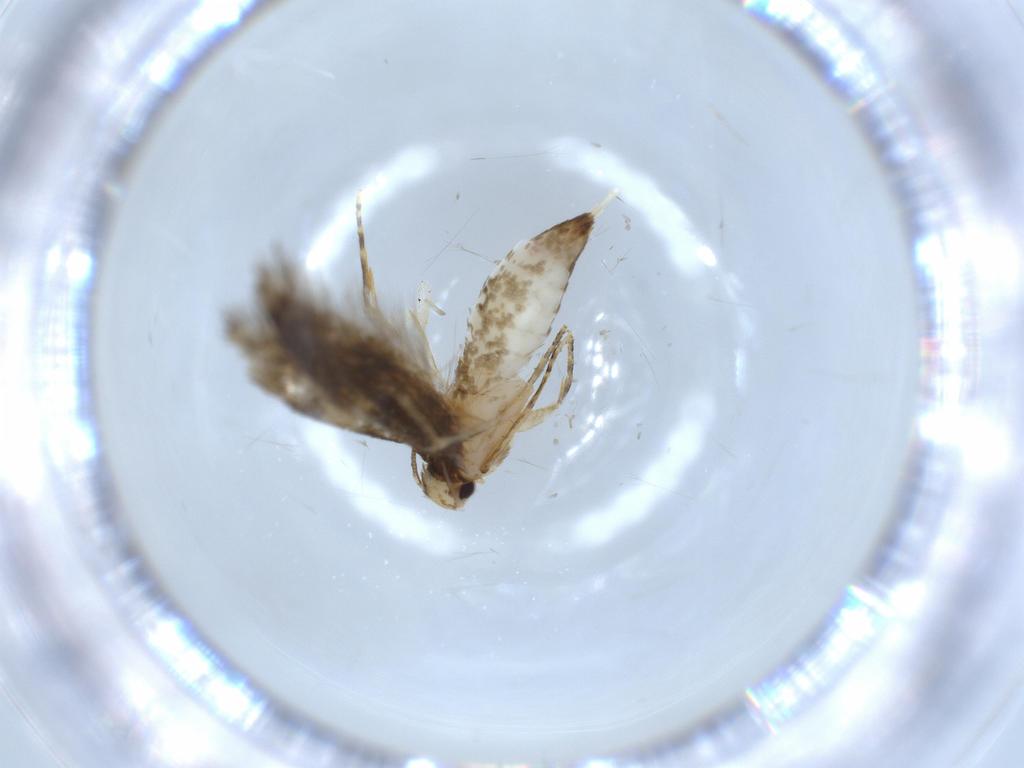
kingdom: Animalia
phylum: Arthropoda
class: Insecta
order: Lepidoptera
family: Tineidae
